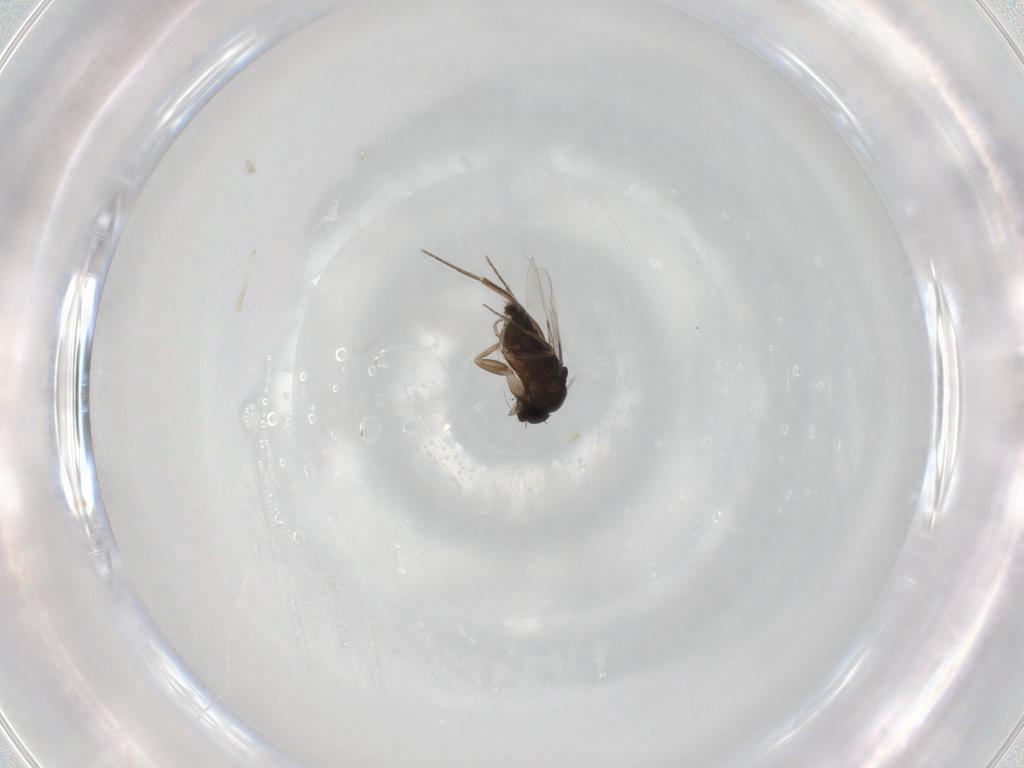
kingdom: Animalia
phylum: Arthropoda
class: Insecta
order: Diptera
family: Phoridae
